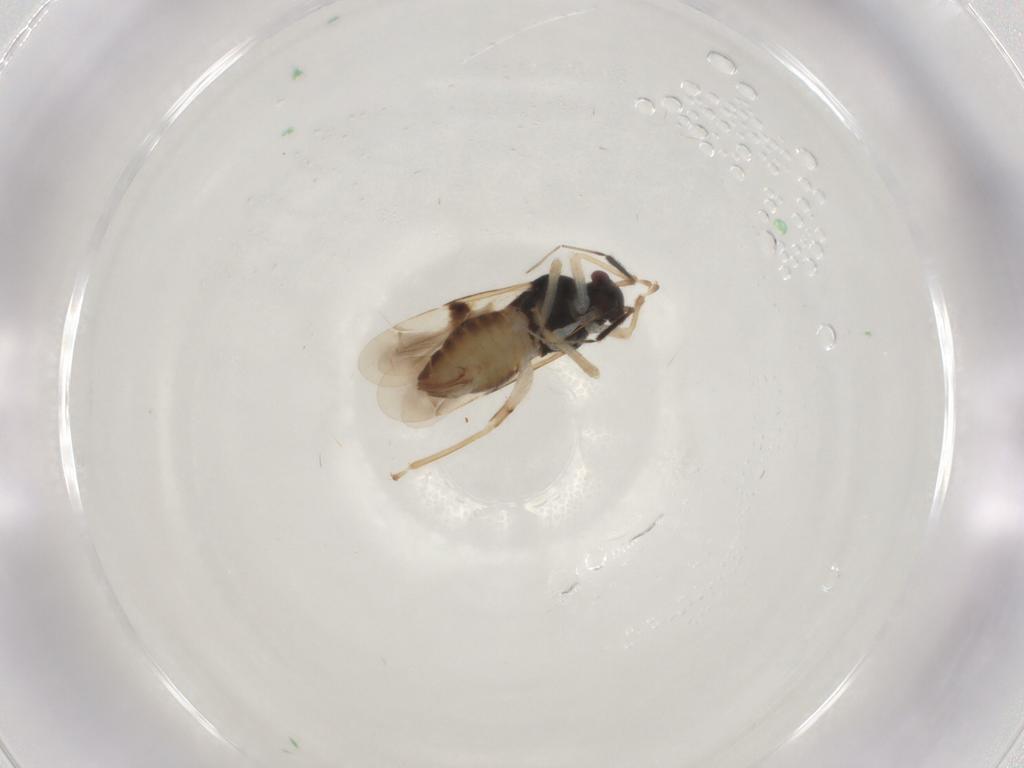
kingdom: Animalia
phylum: Arthropoda
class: Insecta
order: Hemiptera
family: Miridae
